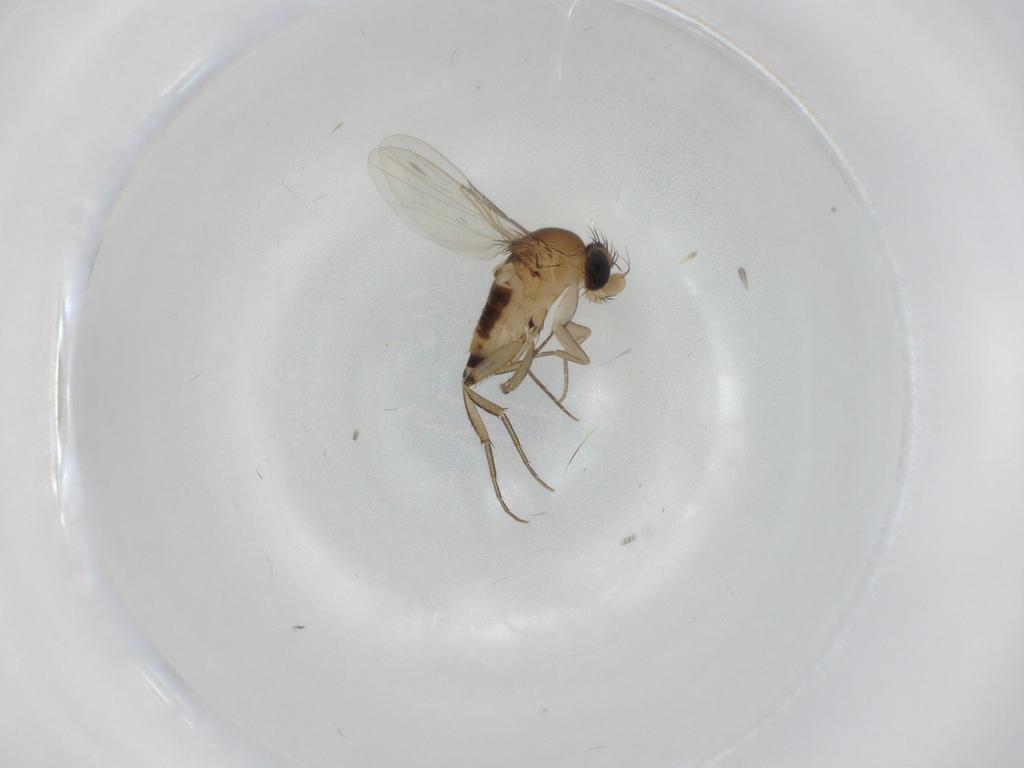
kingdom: Animalia
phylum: Arthropoda
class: Insecta
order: Diptera
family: Phoridae
